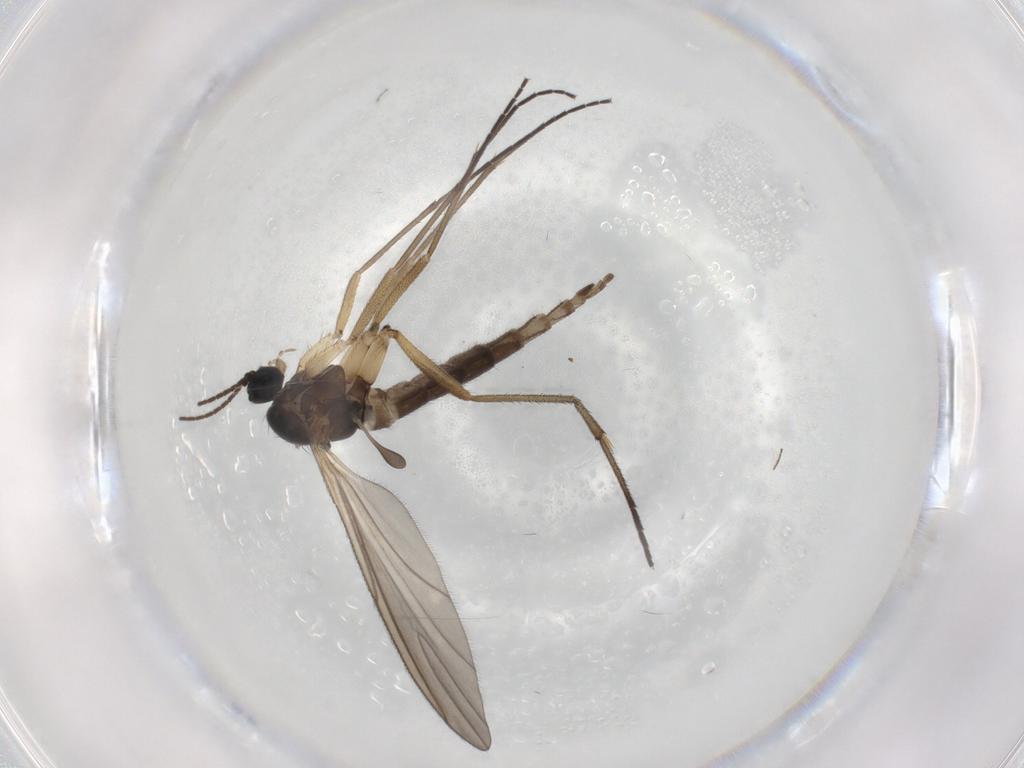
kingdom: Animalia
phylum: Arthropoda
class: Insecta
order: Diptera
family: Sciaridae
